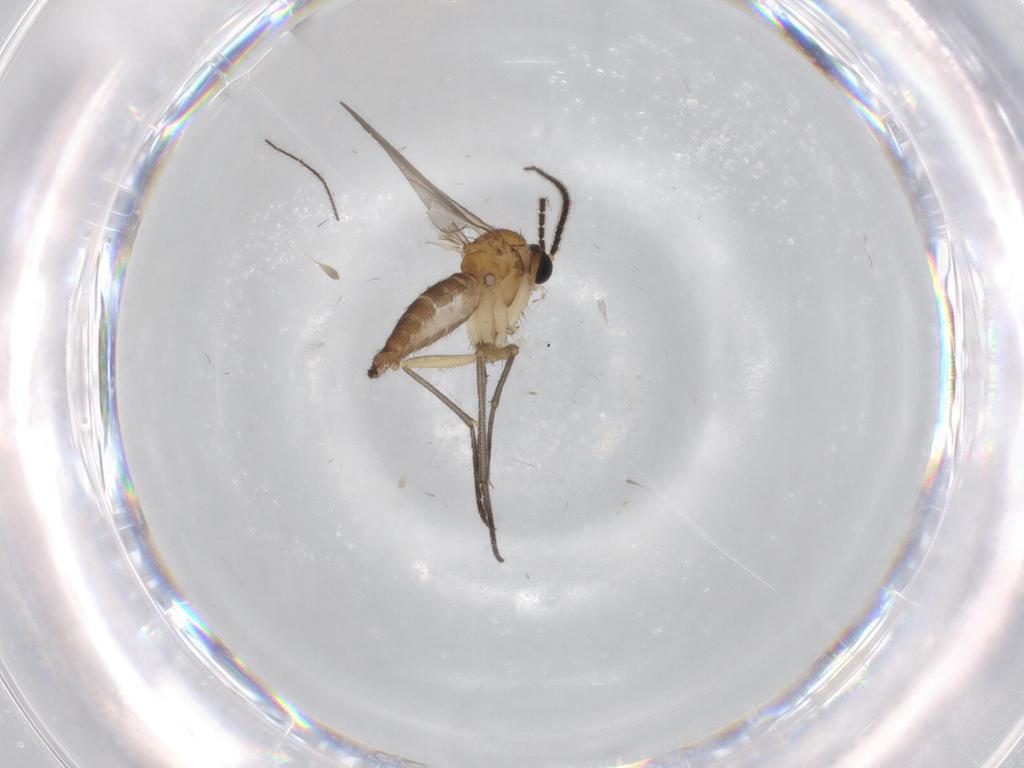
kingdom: Animalia
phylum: Arthropoda
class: Insecta
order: Diptera
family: Sciaridae
